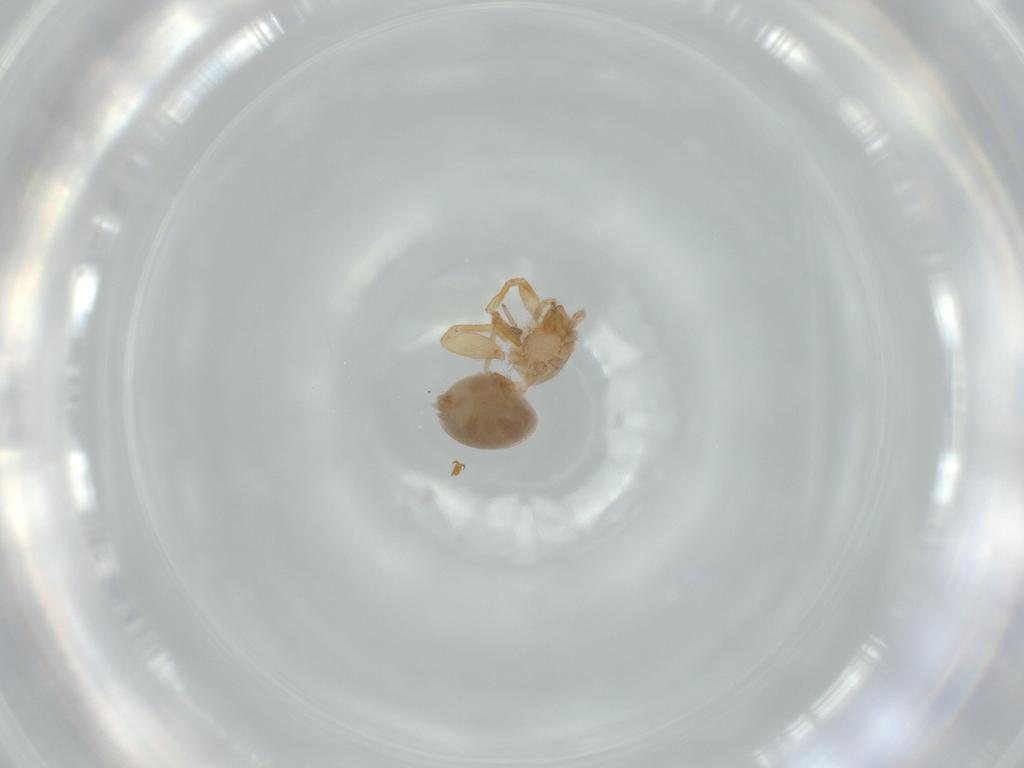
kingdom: Animalia
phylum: Arthropoda
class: Arachnida
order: Araneae
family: Oonopidae
